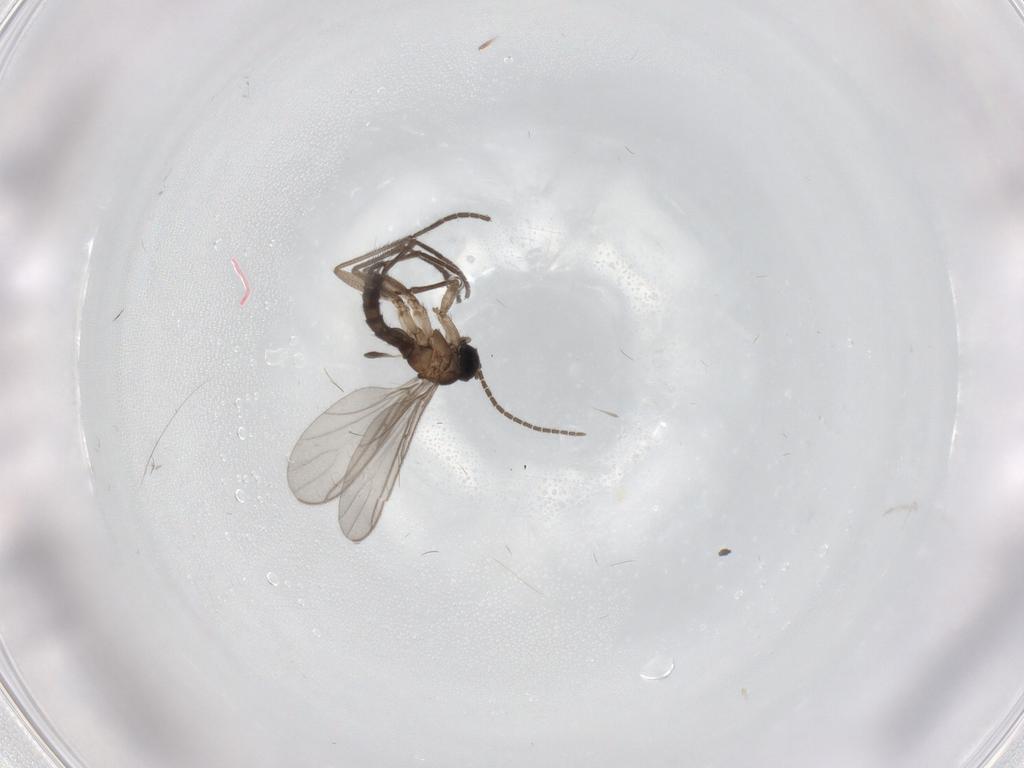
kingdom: Animalia
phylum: Arthropoda
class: Insecta
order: Diptera
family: Sciaridae
